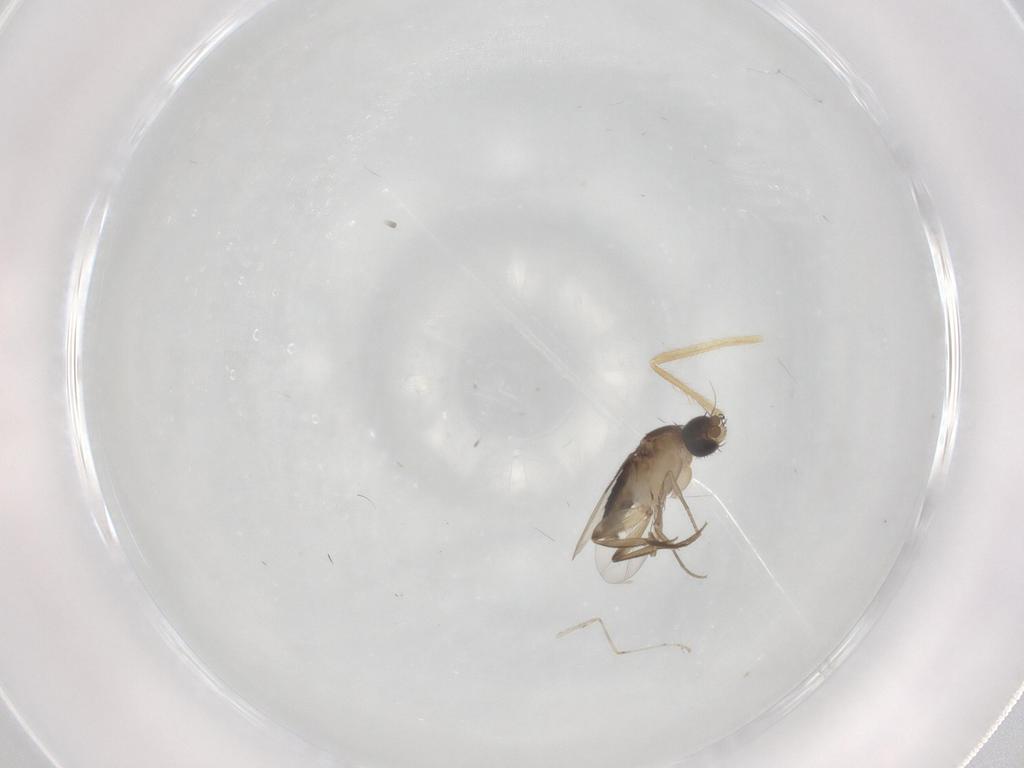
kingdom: Animalia
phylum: Arthropoda
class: Insecta
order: Diptera
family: Phoridae
